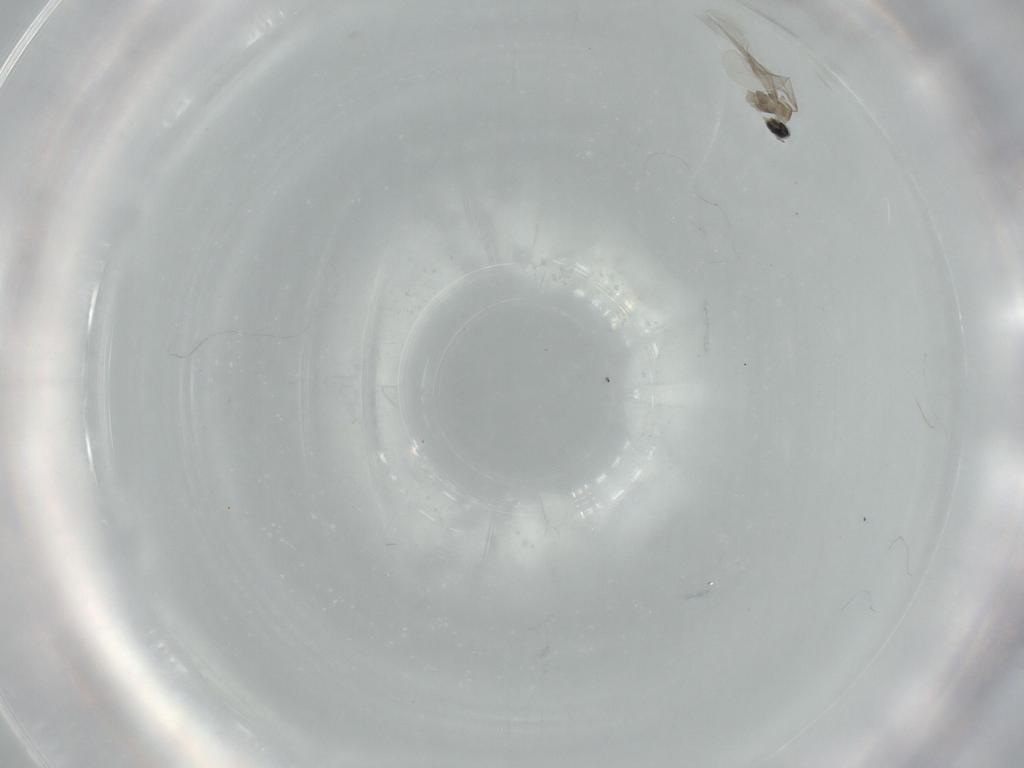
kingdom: Animalia
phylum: Arthropoda
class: Insecta
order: Diptera
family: Cecidomyiidae
